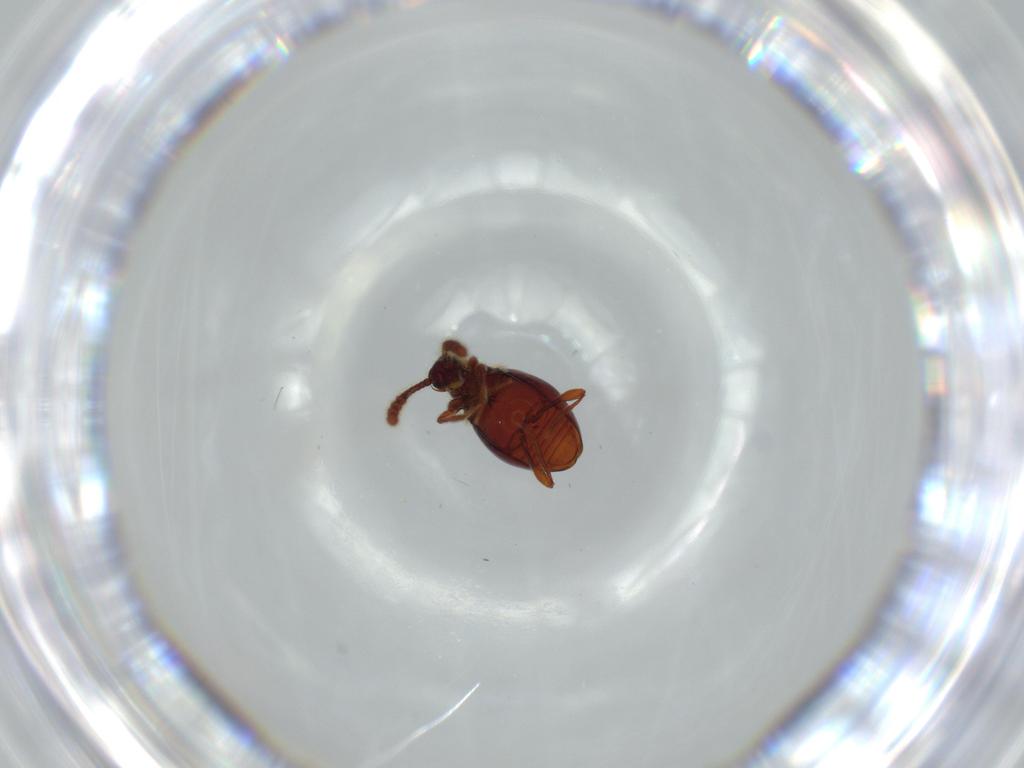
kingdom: Animalia
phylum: Arthropoda
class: Insecta
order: Coleoptera
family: Staphylinidae
